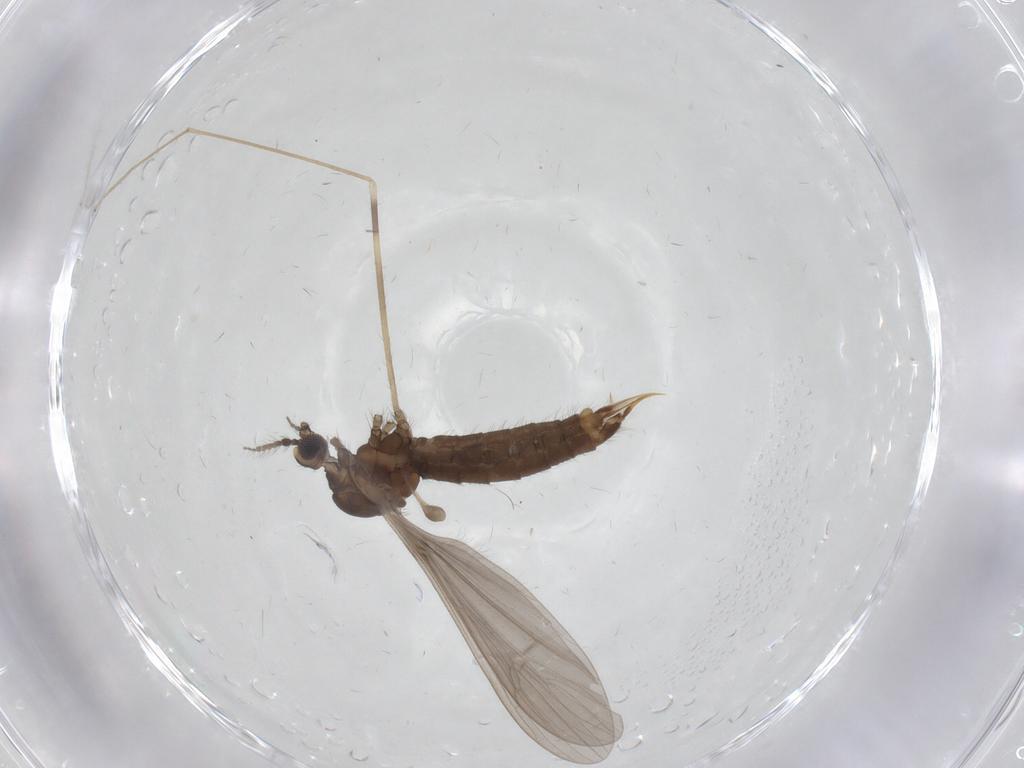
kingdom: Animalia
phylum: Arthropoda
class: Insecta
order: Diptera
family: Limoniidae
